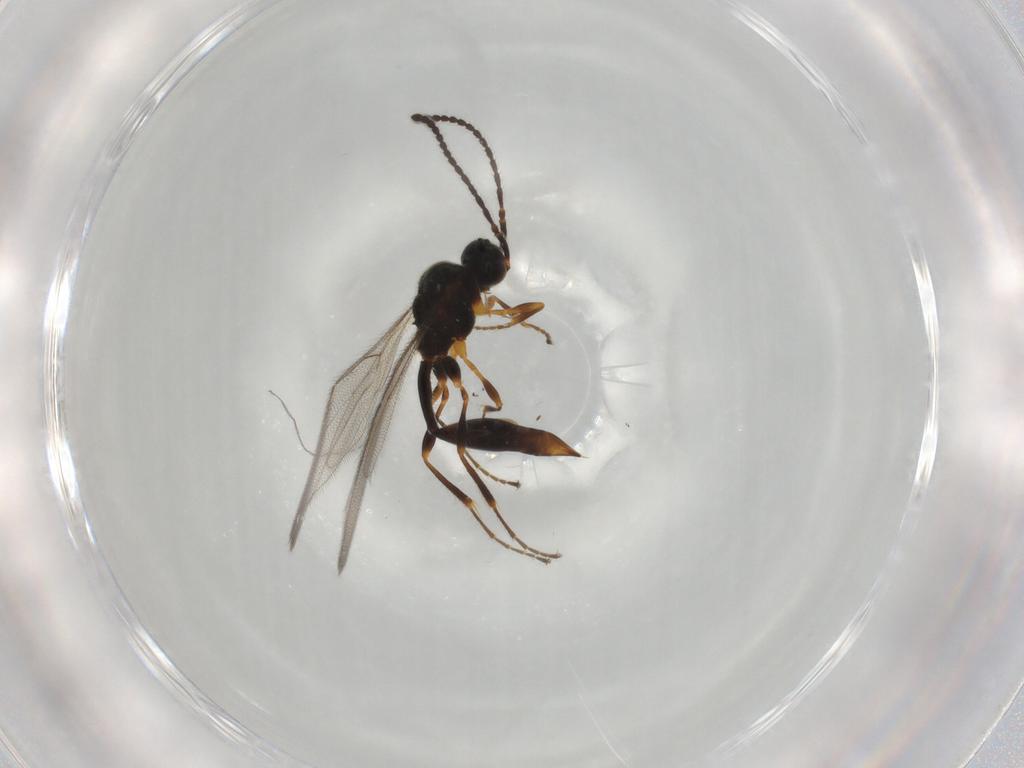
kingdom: Animalia
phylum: Arthropoda
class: Insecta
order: Hymenoptera
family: Diapriidae
